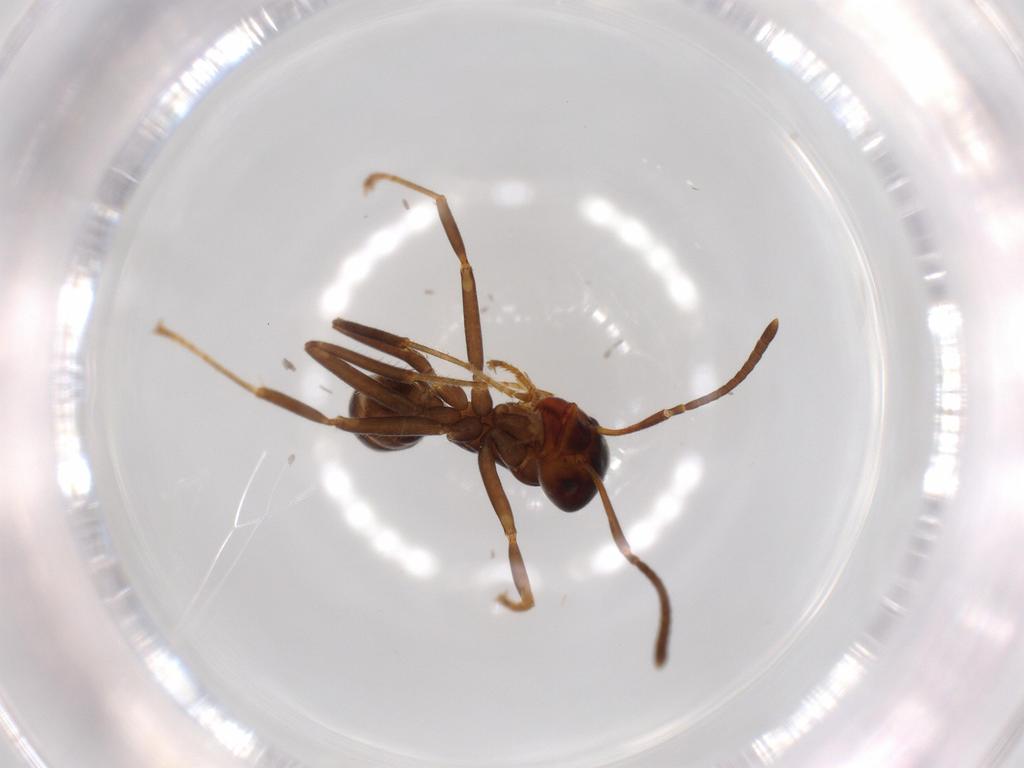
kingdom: Animalia
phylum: Arthropoda
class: Insecta
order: Hymenoptera
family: Formicidae
